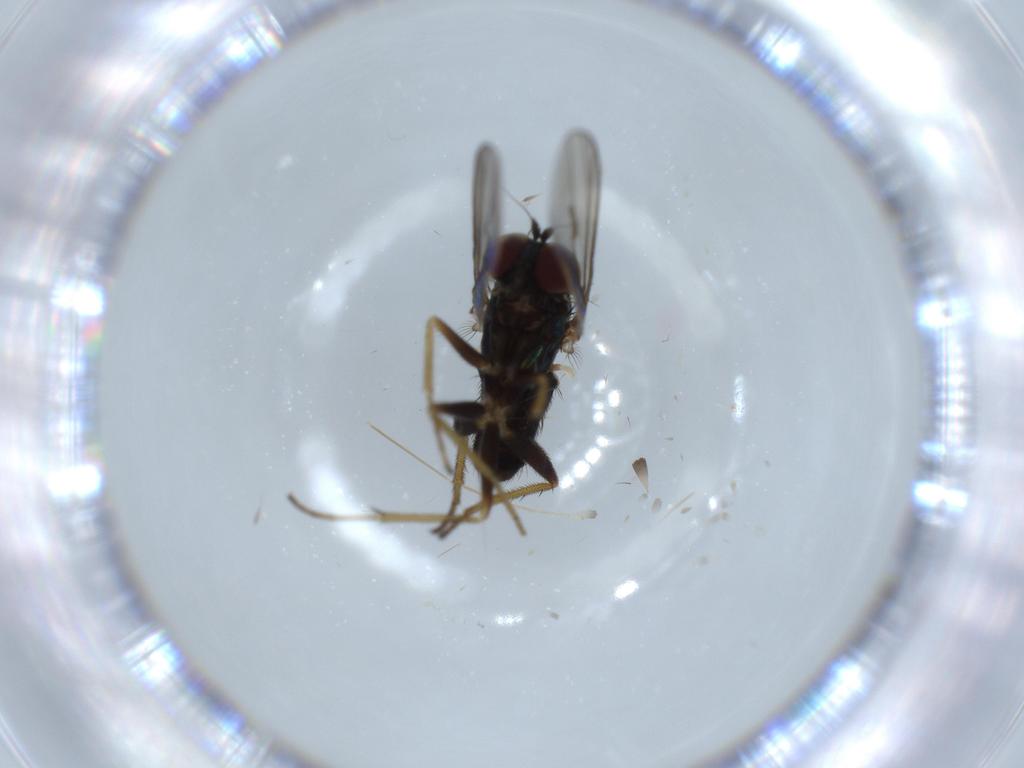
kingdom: Animalia
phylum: Arthropoda
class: Insecta
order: Diptera
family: Chironomidae
